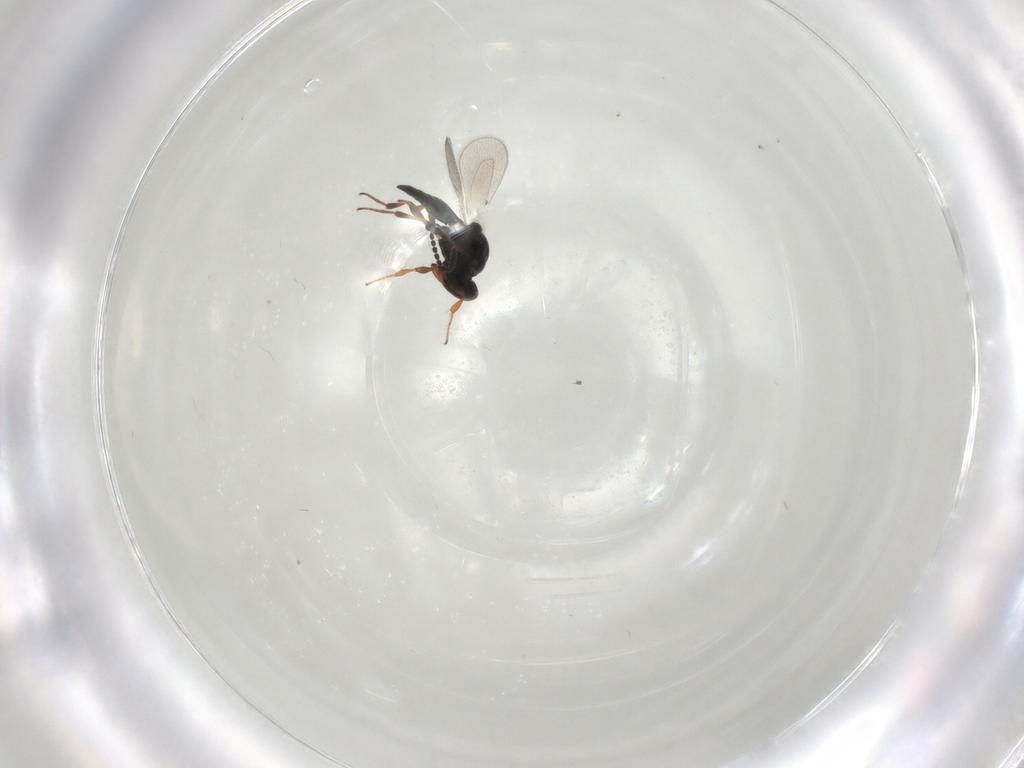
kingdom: Animalia
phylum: Arthropoda
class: Insecta
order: Hymenoptera
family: Platygastridae
